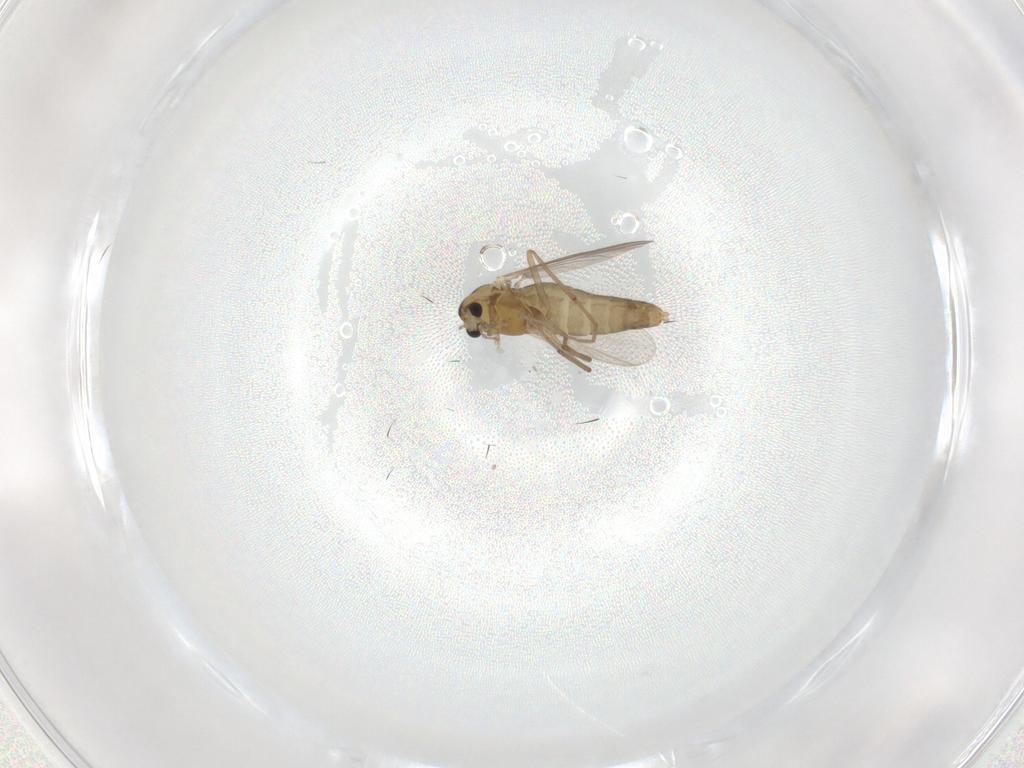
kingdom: Animalia
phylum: Arthropoda
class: Insecta
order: Diptera
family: Chironomidae
